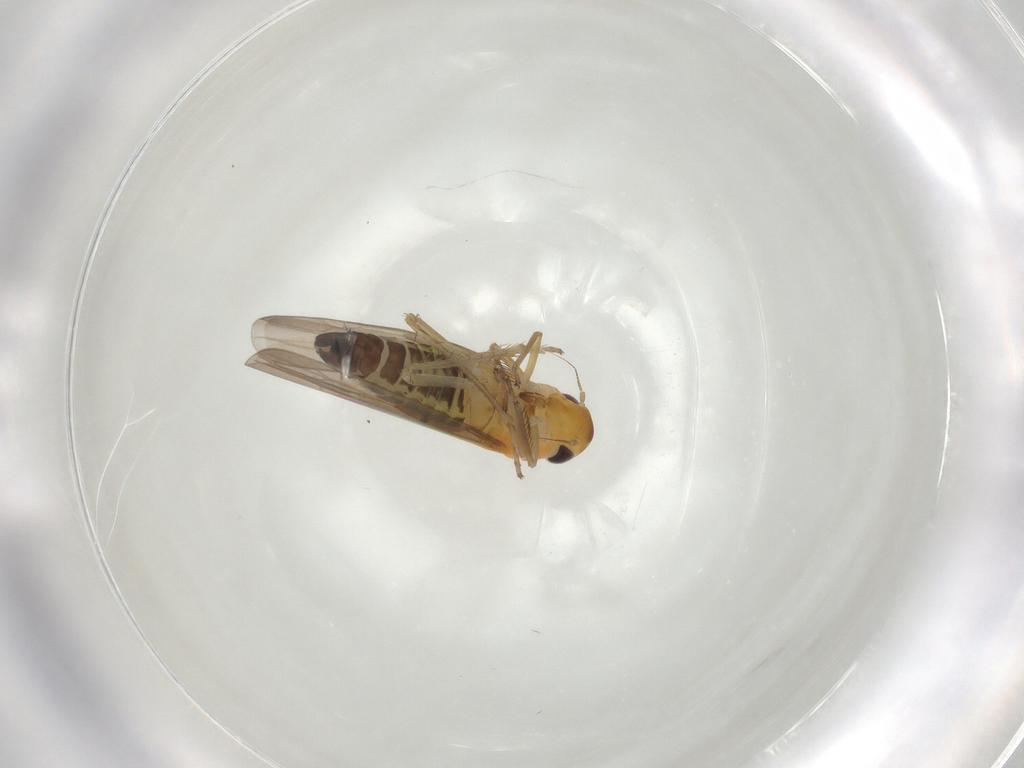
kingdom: Animalia
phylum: Arthropoda
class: Insecta
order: Hemiptera
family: Cicadellidae
